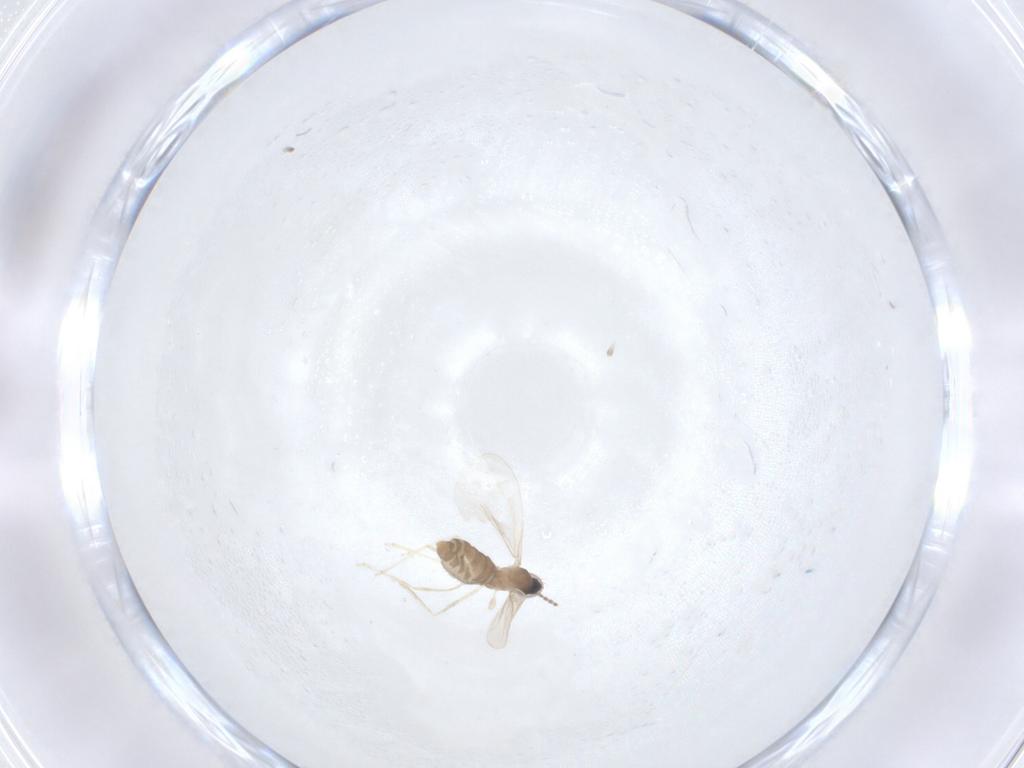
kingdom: Animalia
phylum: Arthropoda
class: Insecta
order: Diptera
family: Cecidomyiidae
